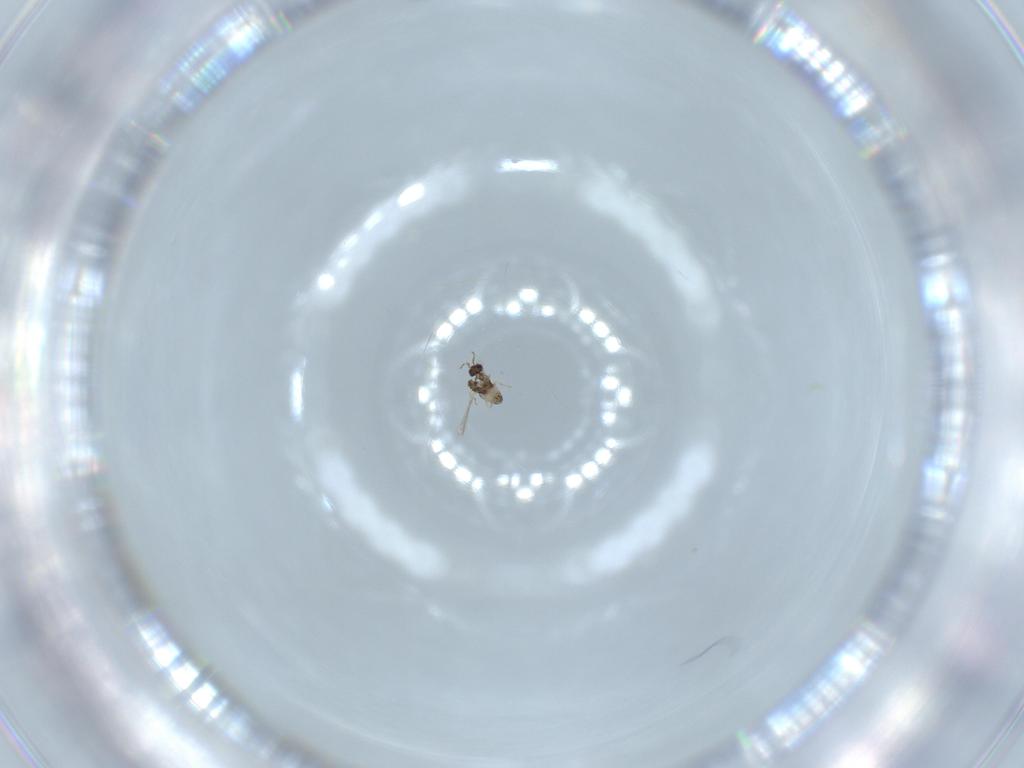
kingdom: Animalia
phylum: Arthropoda
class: Insecta
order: Hymenoptera
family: Mymaridae
